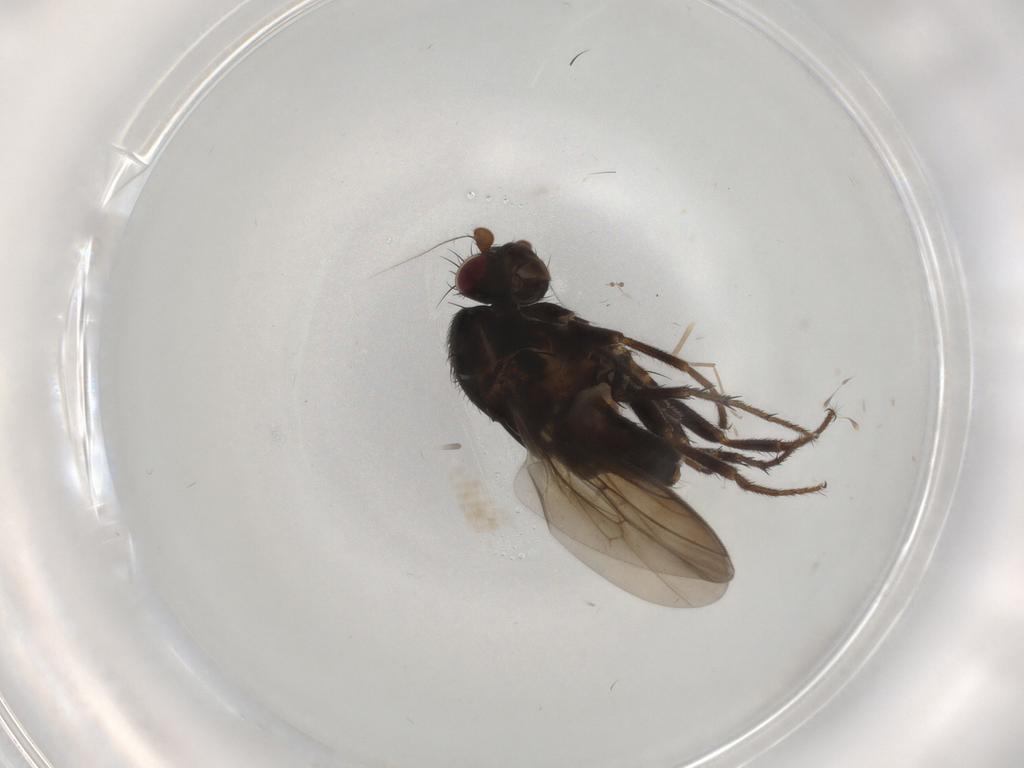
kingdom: Animalia
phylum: Arthropoda
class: Insecta
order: Diptera
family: Sphaeroceridae
